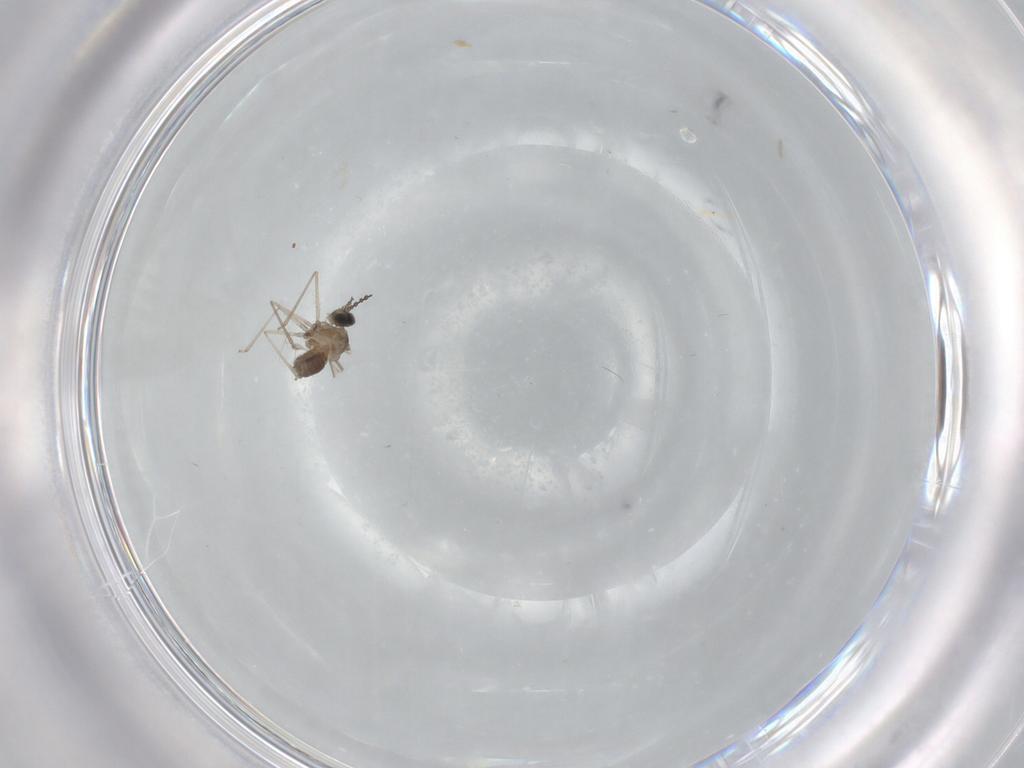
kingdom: Animalia
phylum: Arthropoda
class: Insecta
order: Diptera
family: Cecidomyiidae
